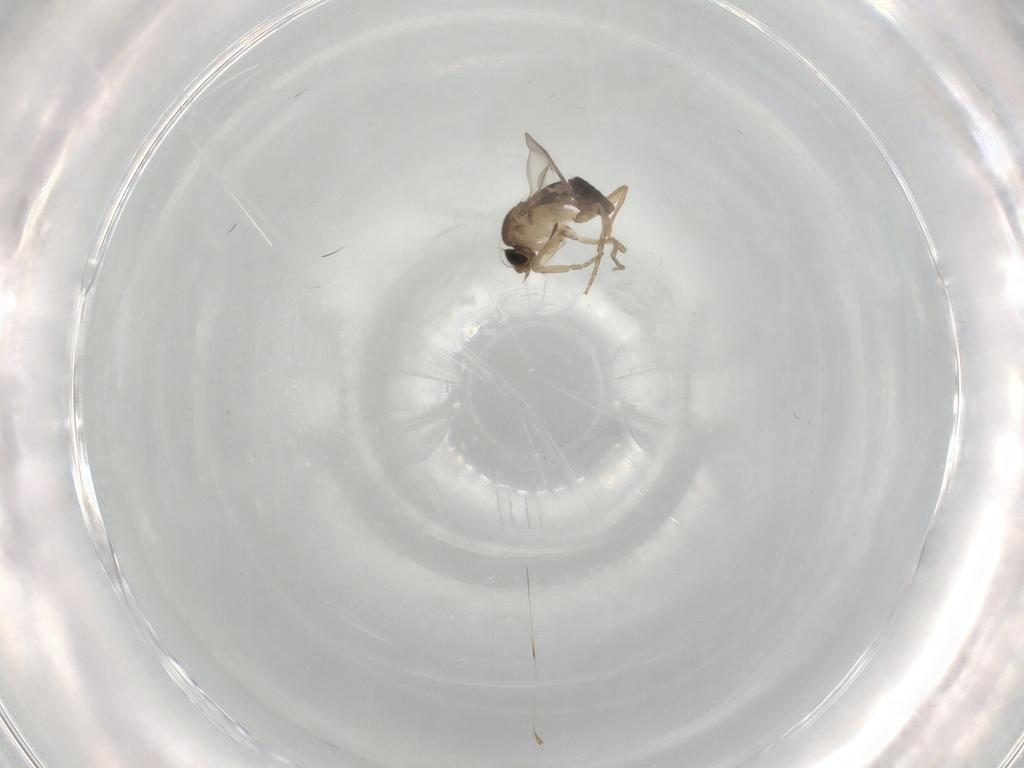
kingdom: Animalia
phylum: Arthropoda
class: Insecta
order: Diptera
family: Phoridae
